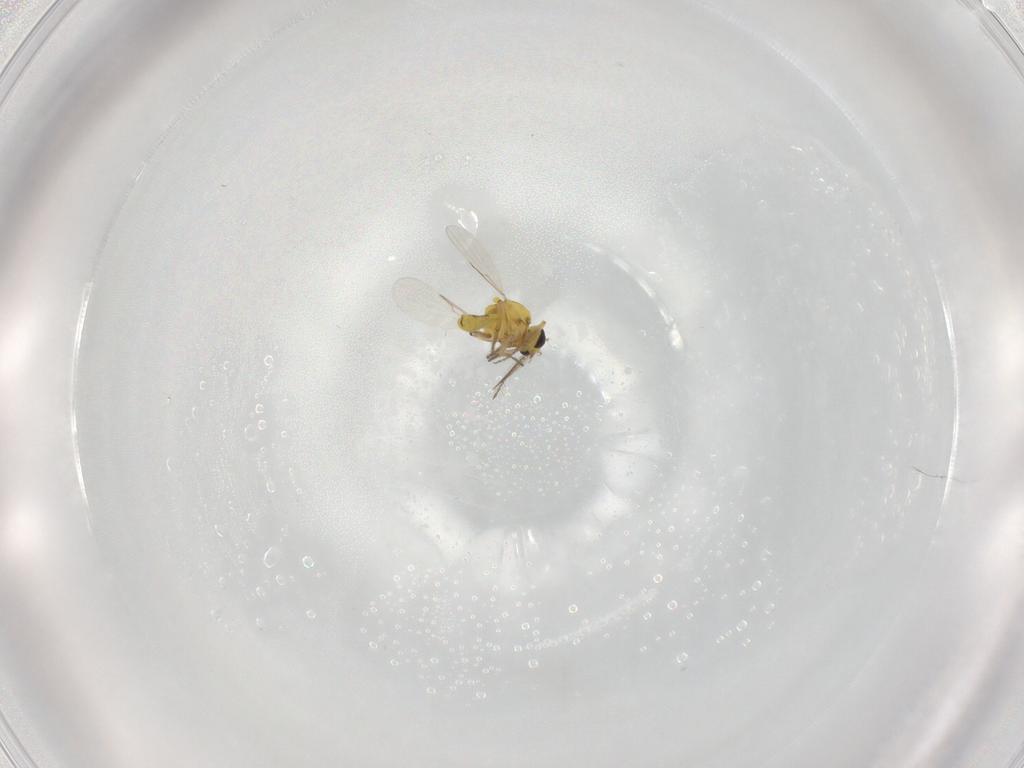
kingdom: Animalia
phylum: Arthropoda
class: Insecta
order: Diptera
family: Ceratopogonidae
